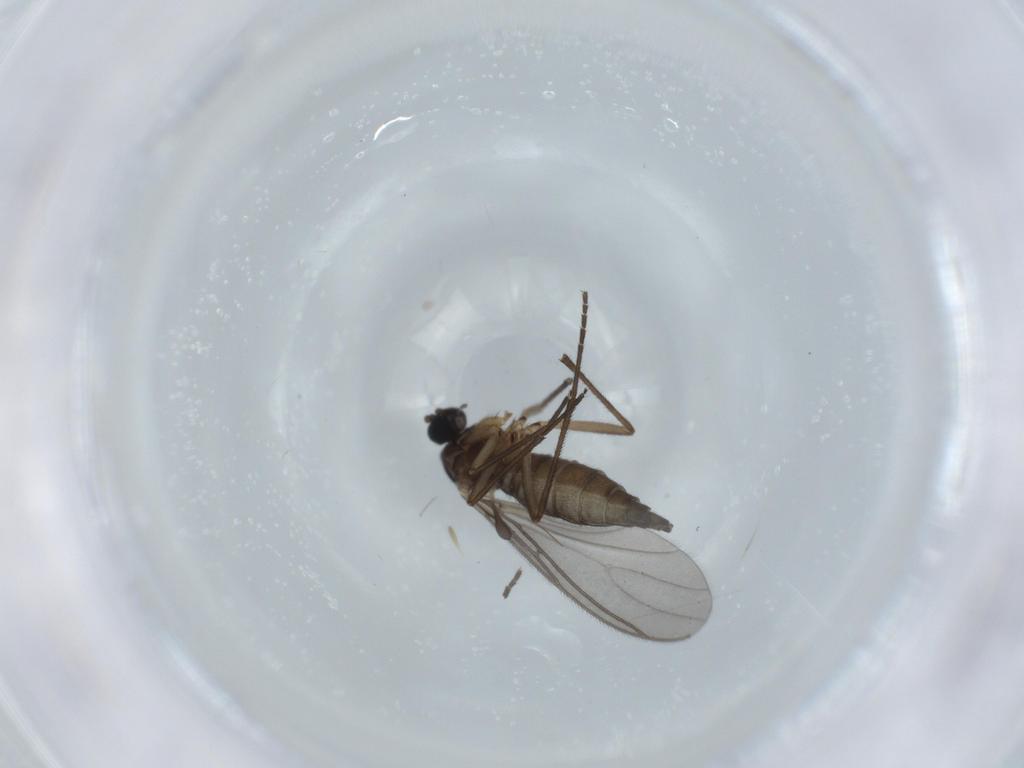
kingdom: Animalia
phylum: Arthropoda
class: Insecta
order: Diptera
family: Sciaridae
